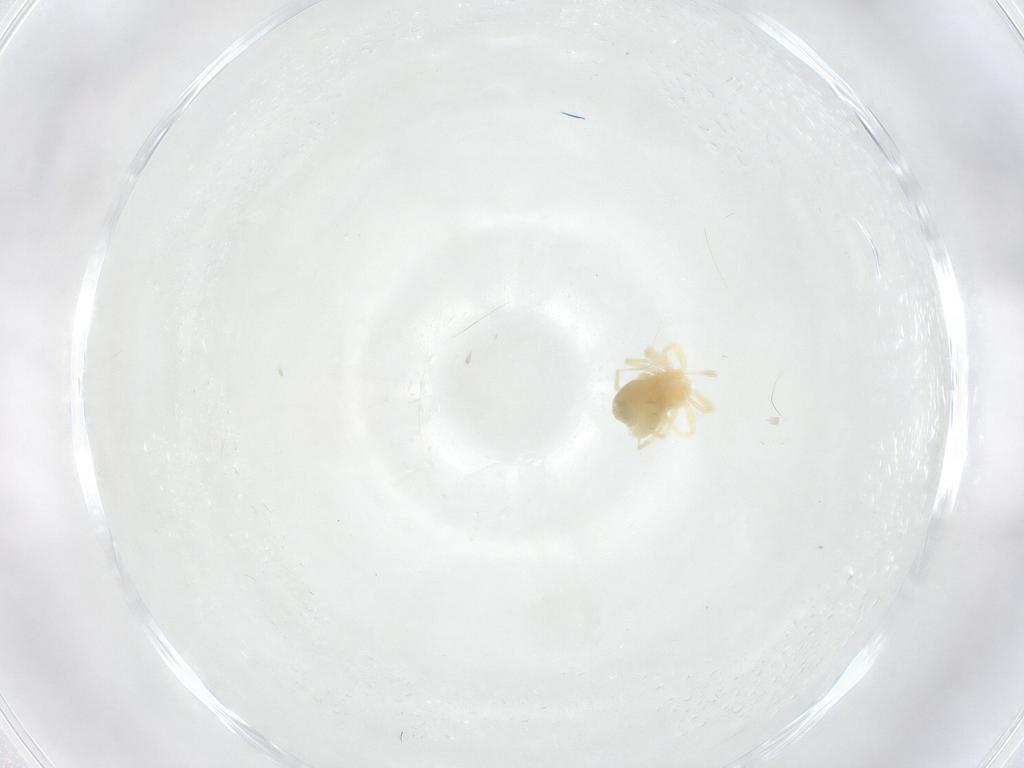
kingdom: Animalia
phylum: Arthropoda
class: Arachnida
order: Trombidiformes
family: Anystidae
